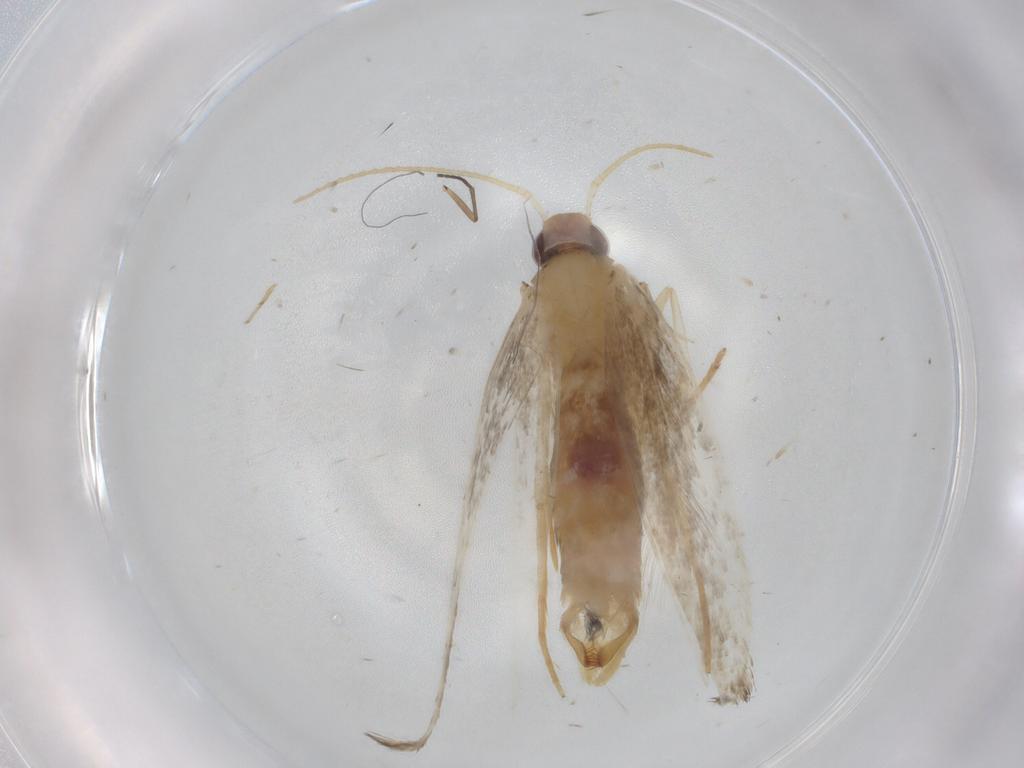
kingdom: Animalia
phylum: Arthropoda
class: Insecta
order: Lepidoptera
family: Cosmopterigidae
